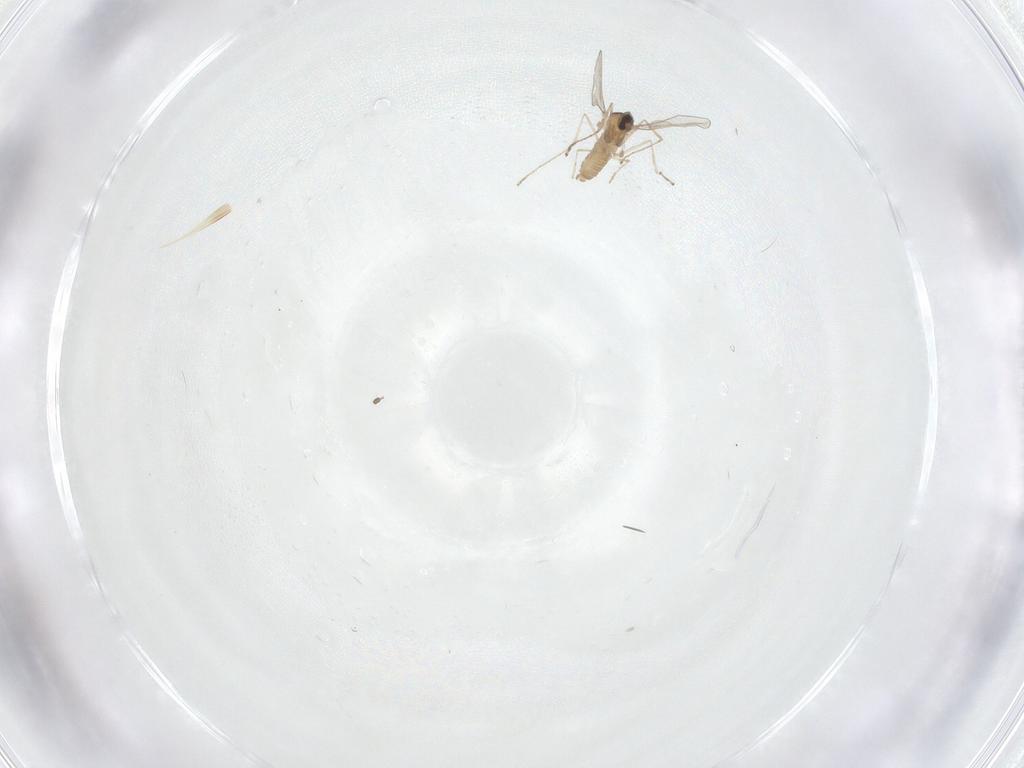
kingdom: Animalia
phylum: Arthropoda
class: Insecta
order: Diptera
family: Cecidomyiidae
